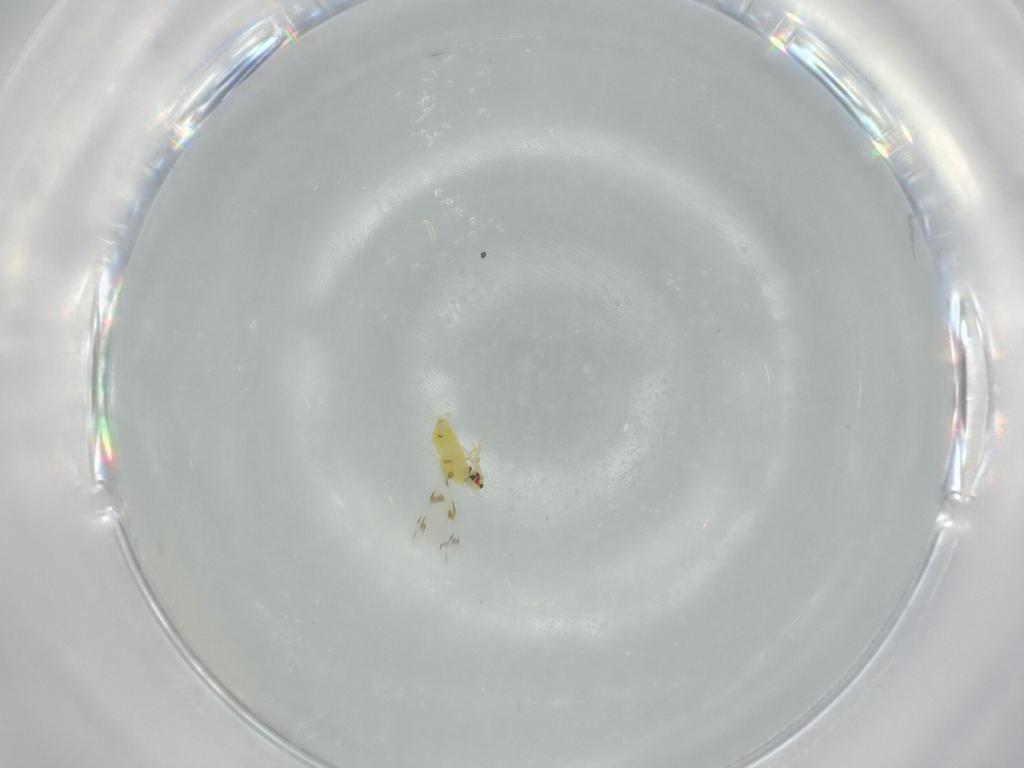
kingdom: Animalia
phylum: Arthropoda
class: Insecta
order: Hemiptera
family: Aleyrodidae
